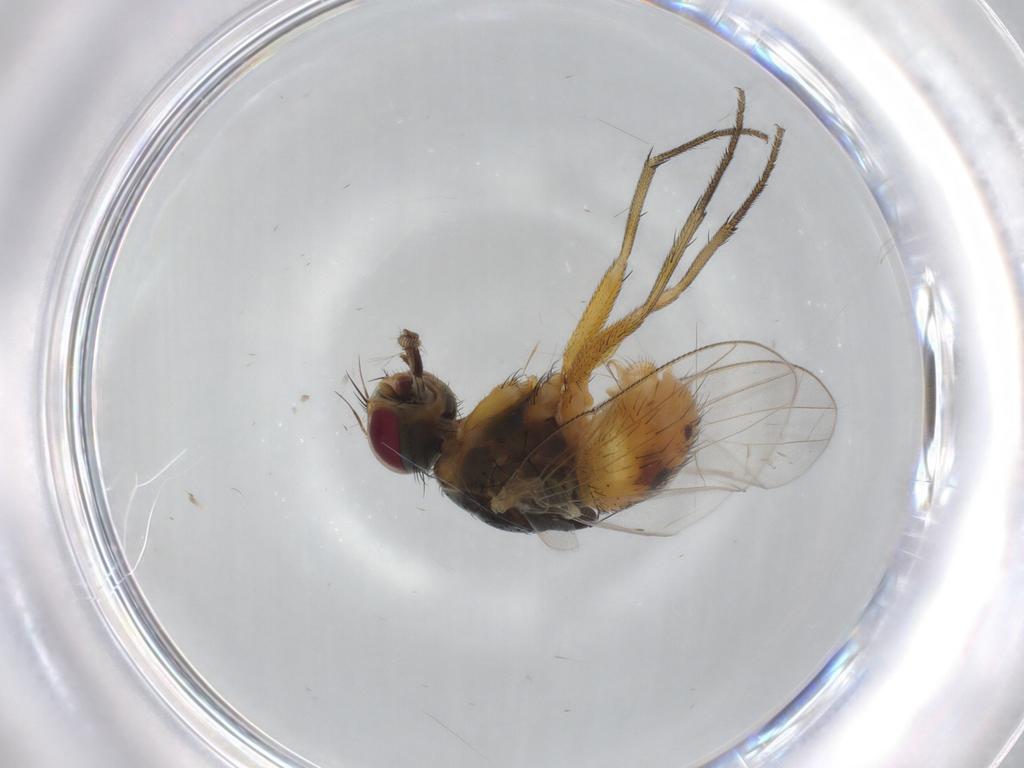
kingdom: Animalia
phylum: Arthropoda
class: Insecta
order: Diptera
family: Muscidae
